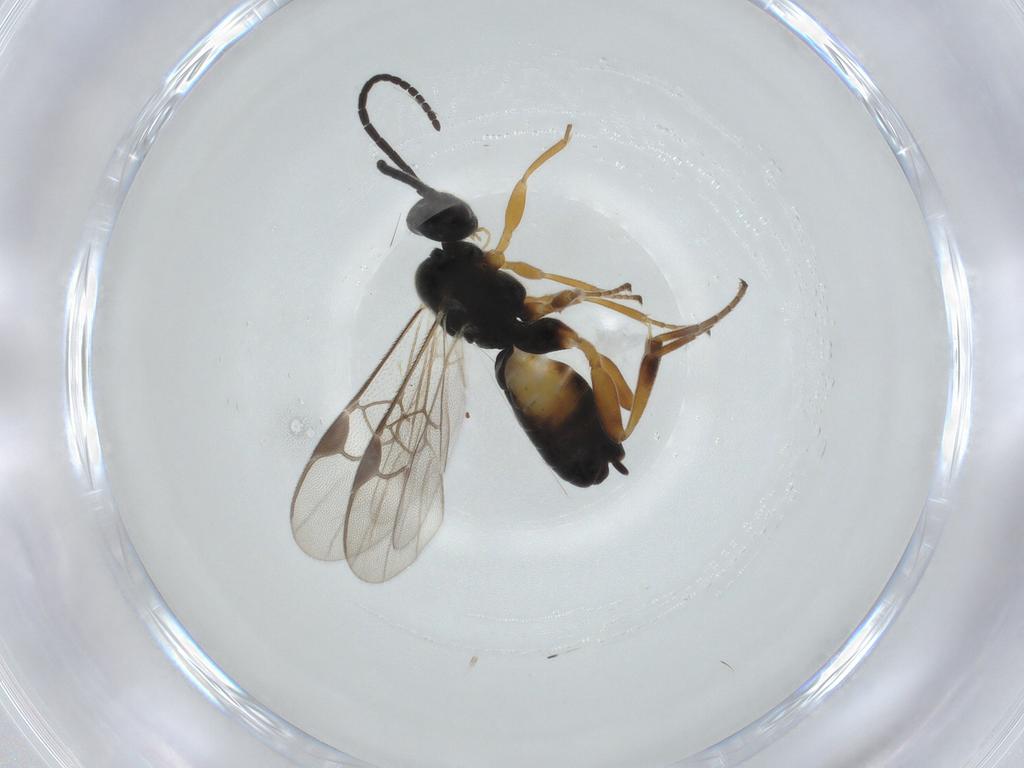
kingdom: Animalia
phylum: Arthropoda
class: Insecta
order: Hymenoptera
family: Braconidae
